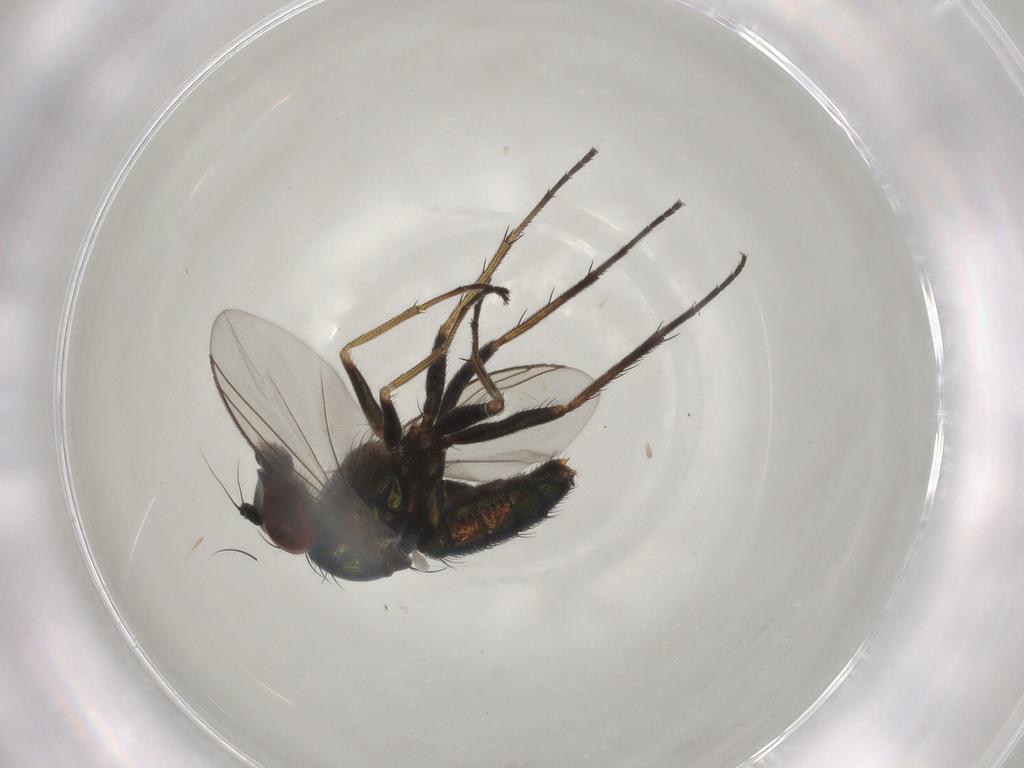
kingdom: Animalia
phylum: Arthropoda
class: Insecta
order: Diptera
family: Dolichopodidae
